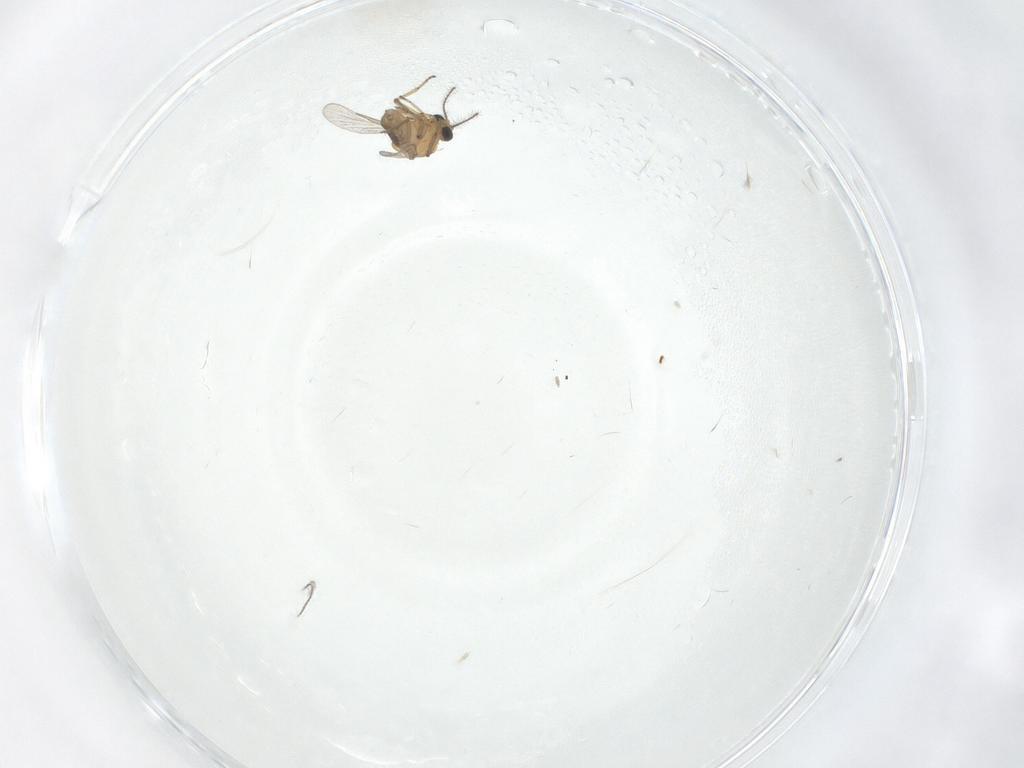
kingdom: Animalia
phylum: Arthropoda
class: Insecta
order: Diptera
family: Ceratopogonidae
